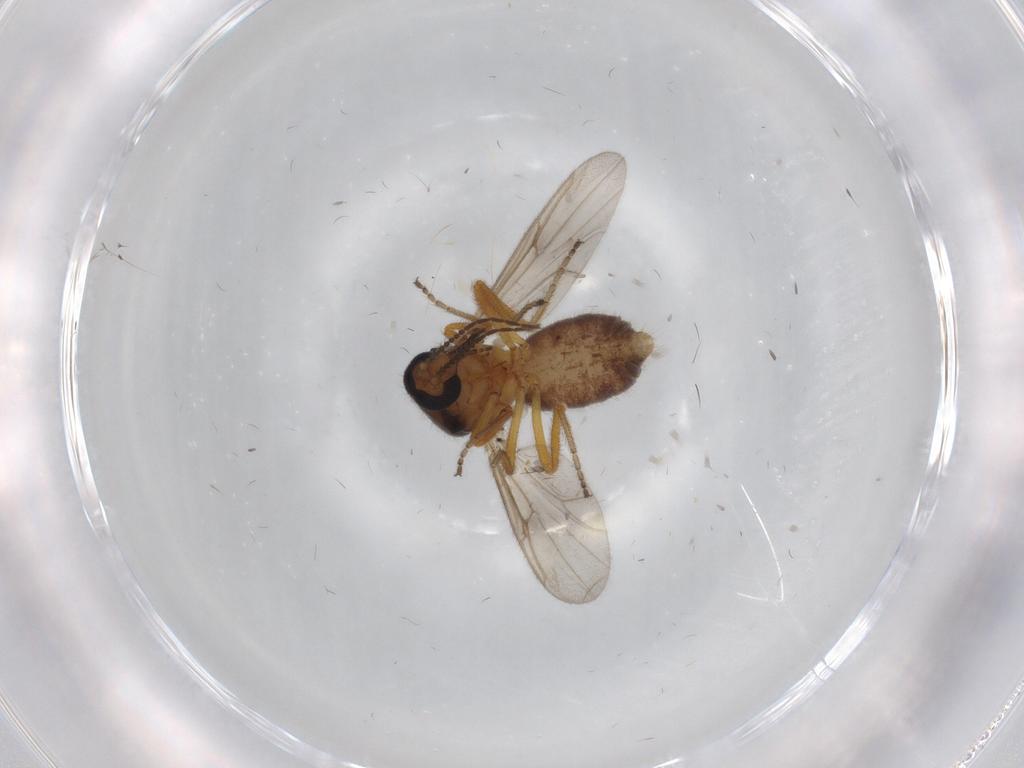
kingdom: Animalia
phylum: Arthropoda
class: Insecta
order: Diptera
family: Ceratopogonidae
